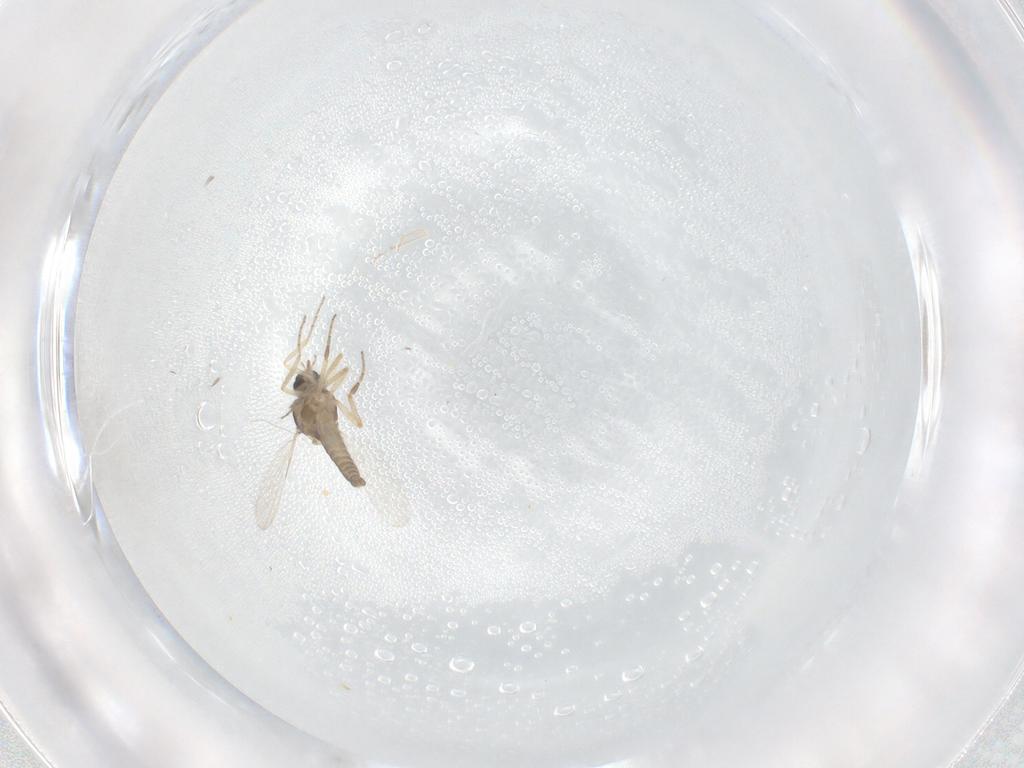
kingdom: Animalia
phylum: Arthropoda
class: Insecta
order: Diptera
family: Ceratopogonidae
